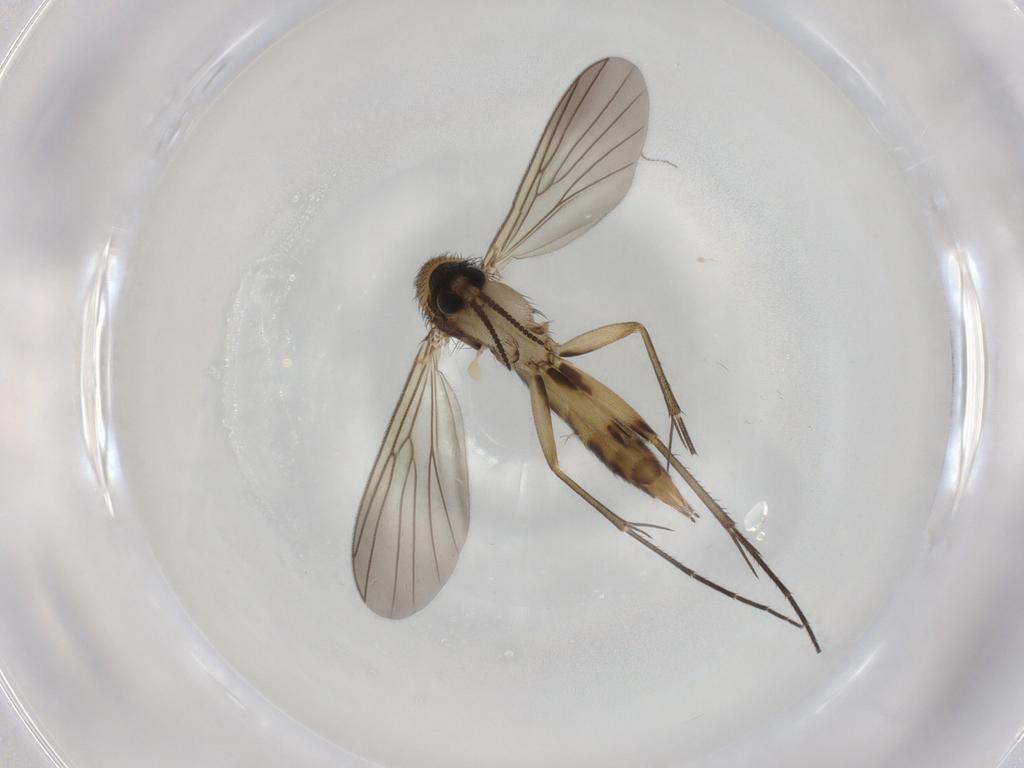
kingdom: Animalia
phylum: Arthropoda
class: Insecta
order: Diptera
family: Mycetophilidae
